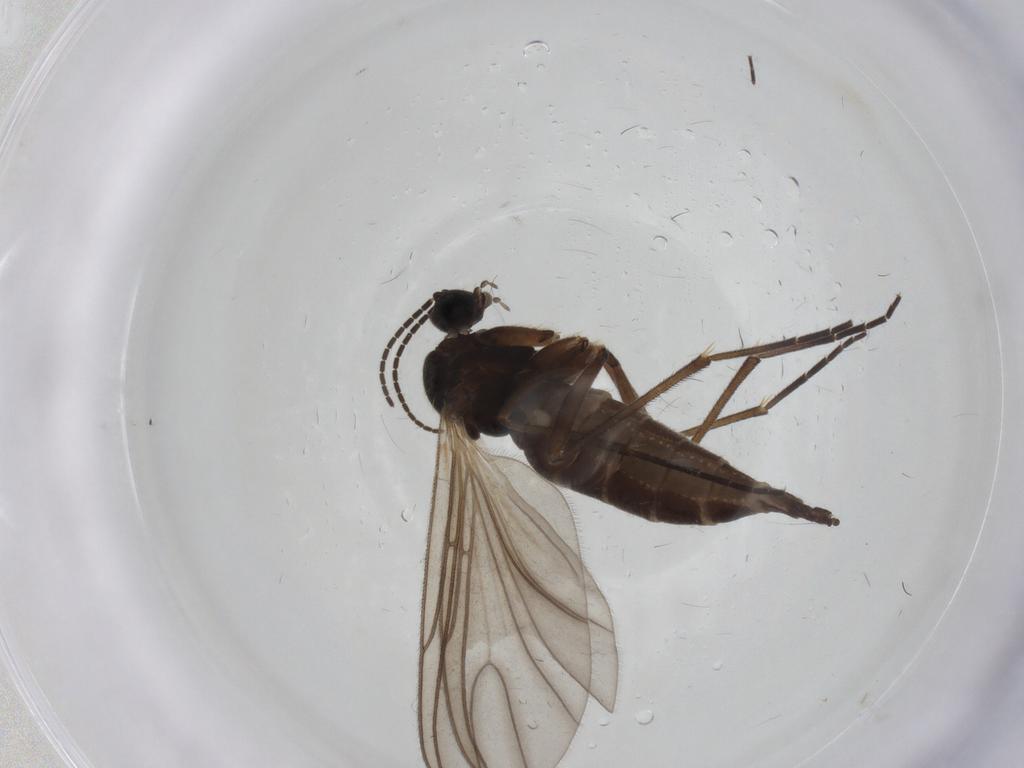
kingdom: Animalia
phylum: Arthropoda
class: Insecta
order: Diptera
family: Sciaridae
